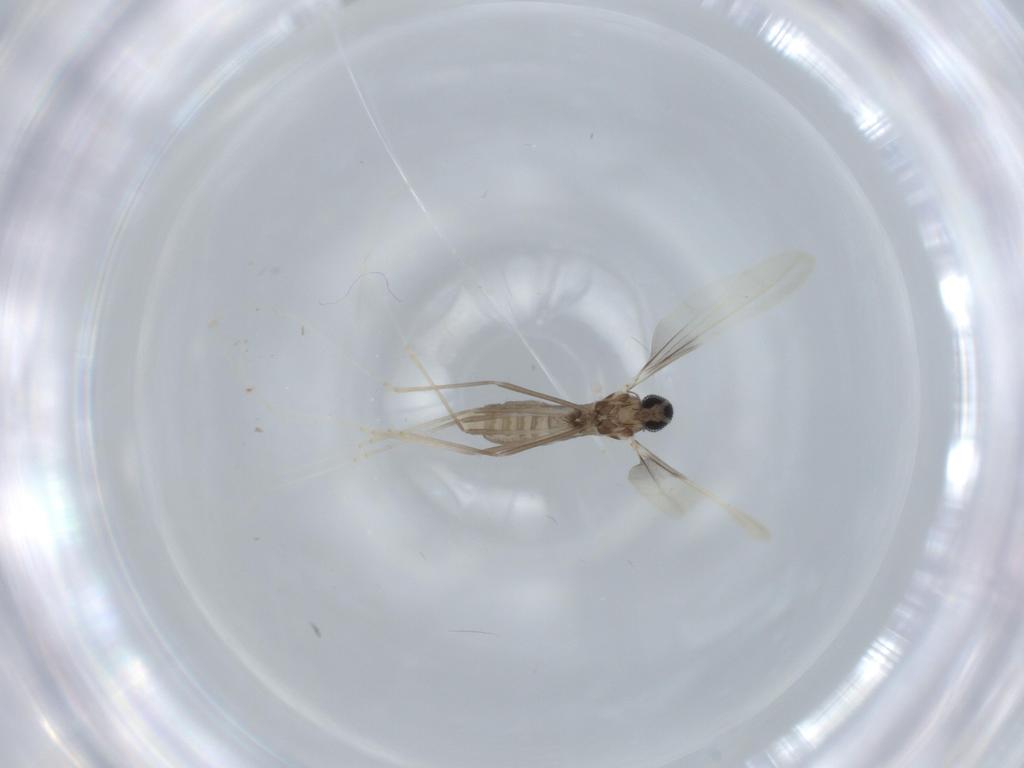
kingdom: Animalia
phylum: Arthropoda
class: Insecta
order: Diptera
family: Cecidomyiidae
